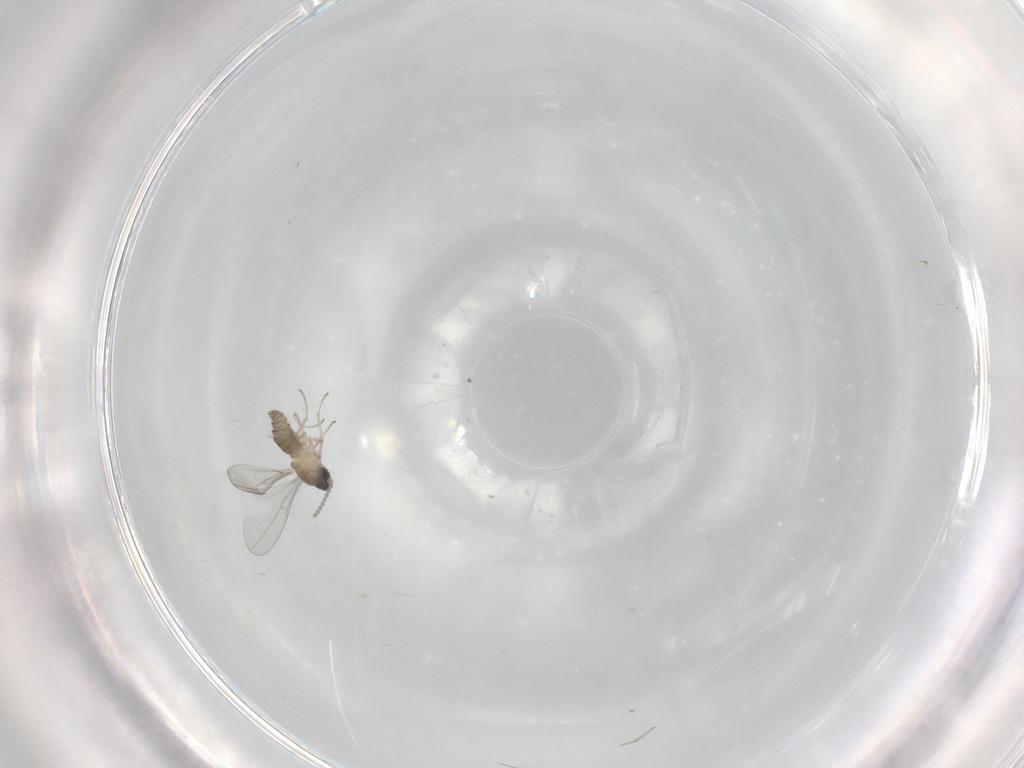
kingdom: Animalia
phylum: Arthropoda
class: Insecta
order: Diptera
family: Cecidomyiidae
